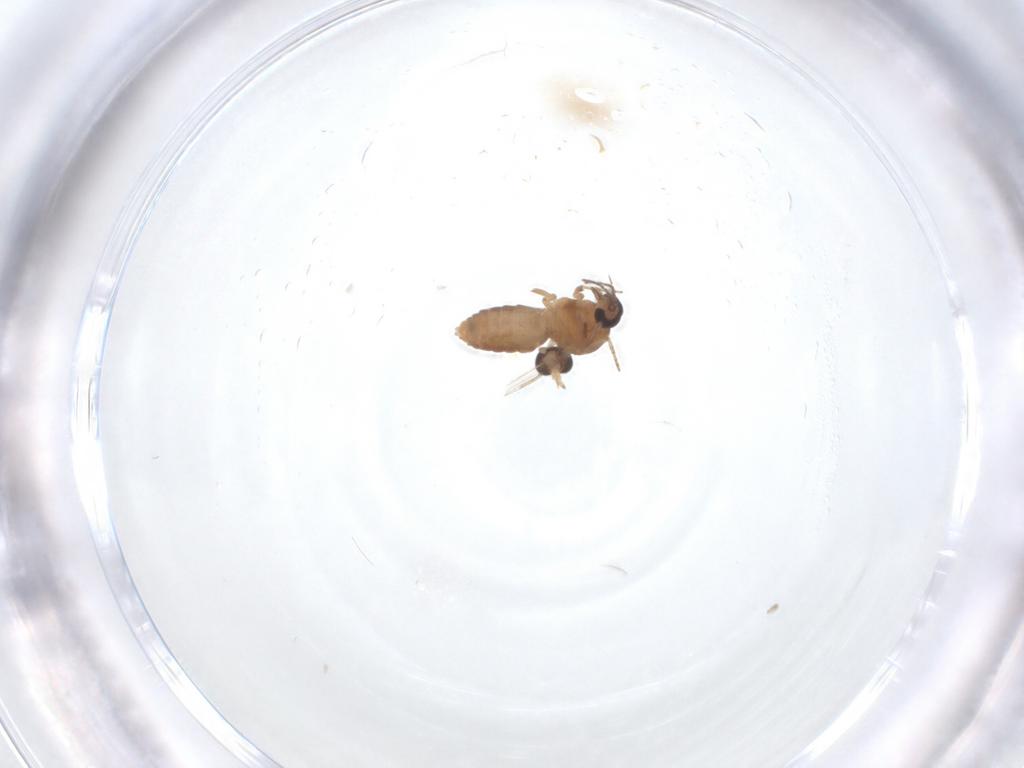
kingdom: Animalia
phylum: Arthropoda
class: Insecta
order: Diptera
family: Ceratopogonidae
